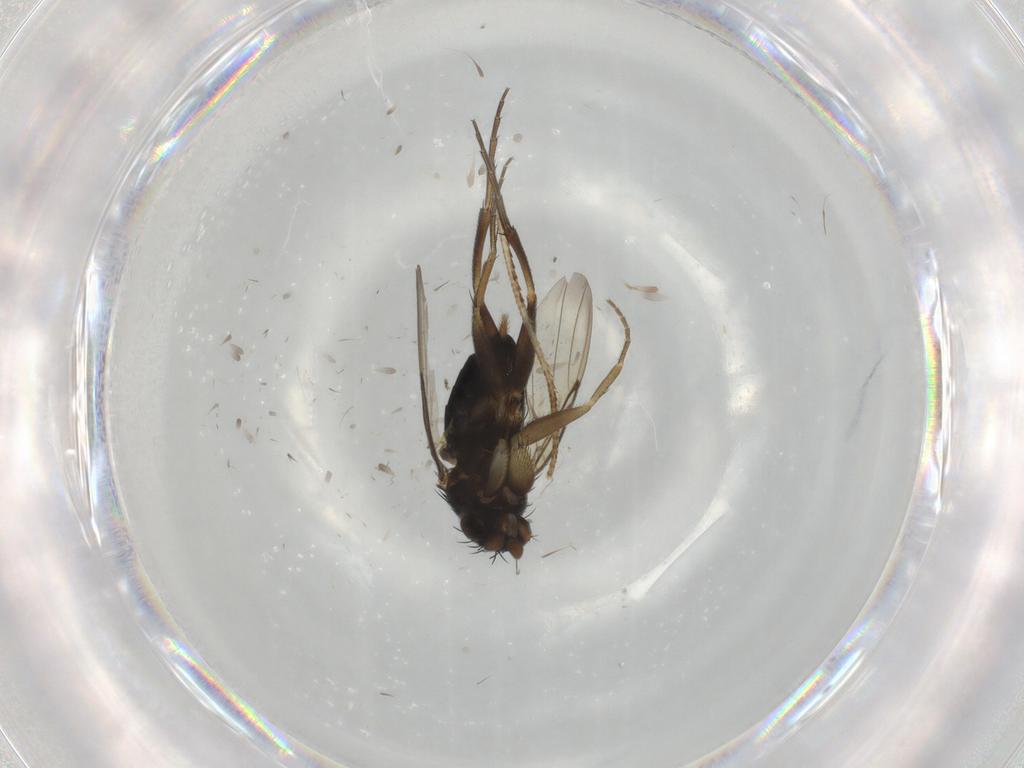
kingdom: Animalia
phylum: Arthropoda
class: Insecta
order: Diptera
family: Phoridae
